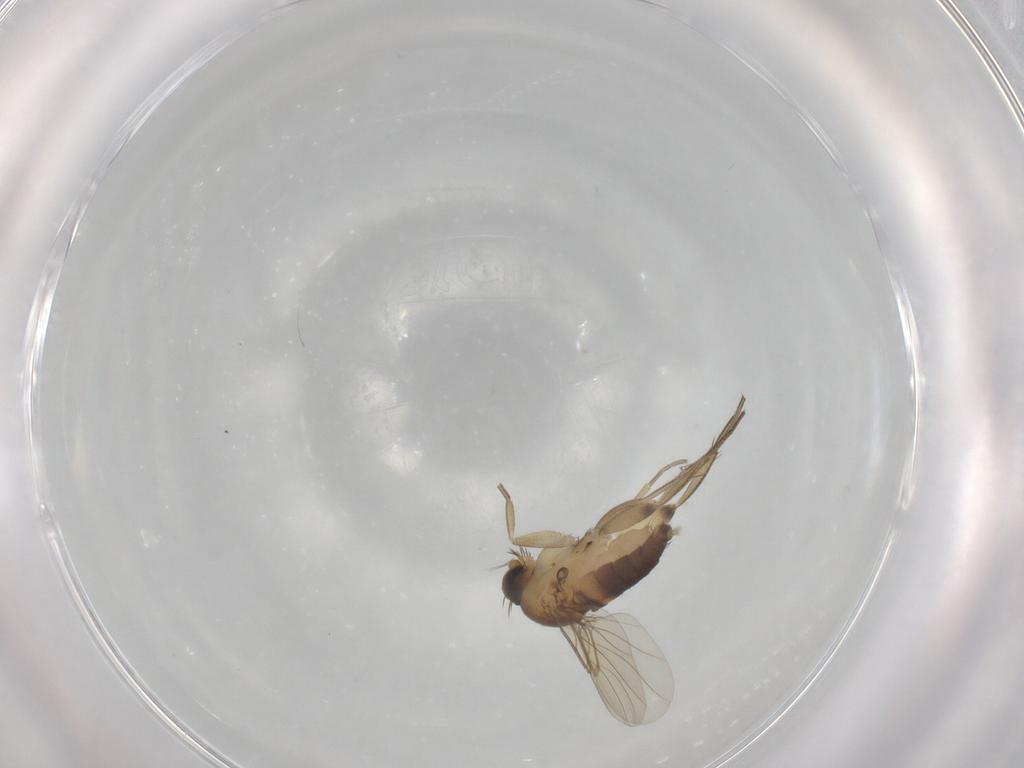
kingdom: Animalia
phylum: Arthropoda
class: Insecta
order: Diptera
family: Phoridae
